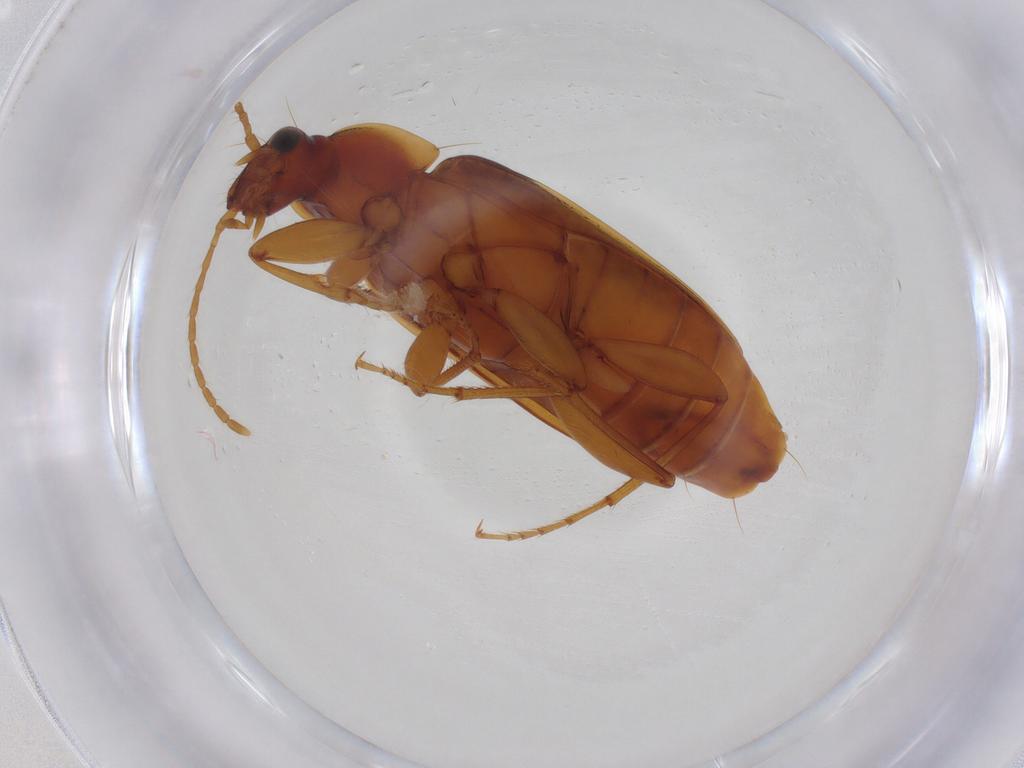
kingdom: Animalia
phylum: Arthropoda
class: Insecta
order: Coleoptera
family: Carabidae
